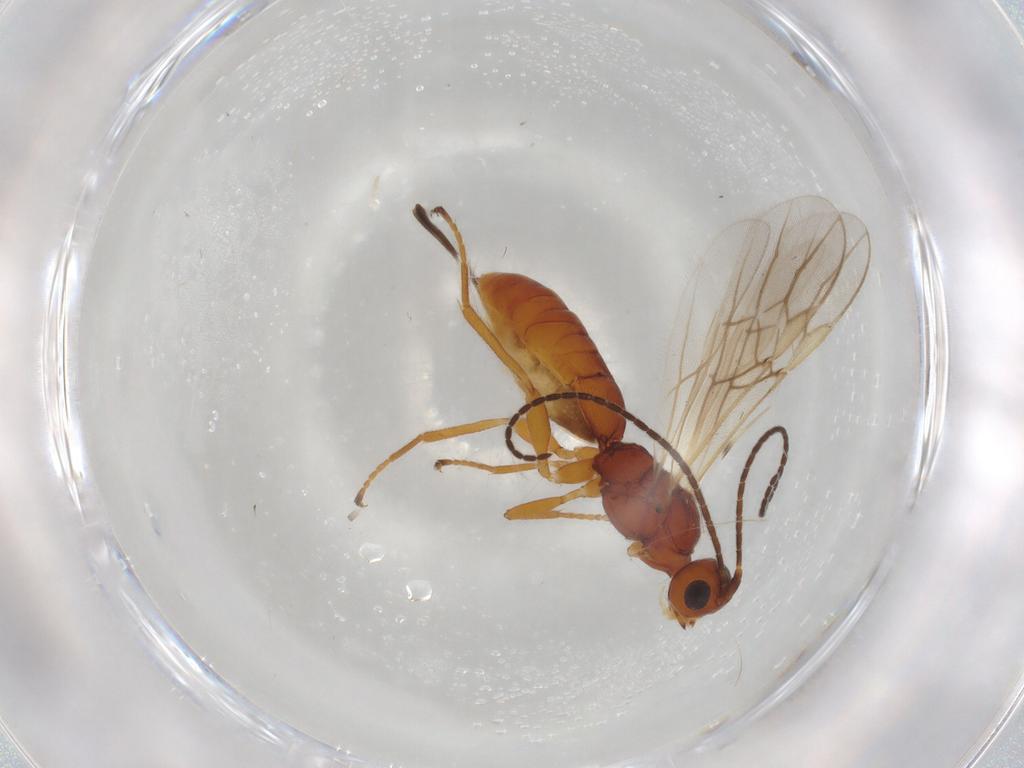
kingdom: Animalia
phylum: Arthropoda
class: Insecta
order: Hymenoptera
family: Braconidae
